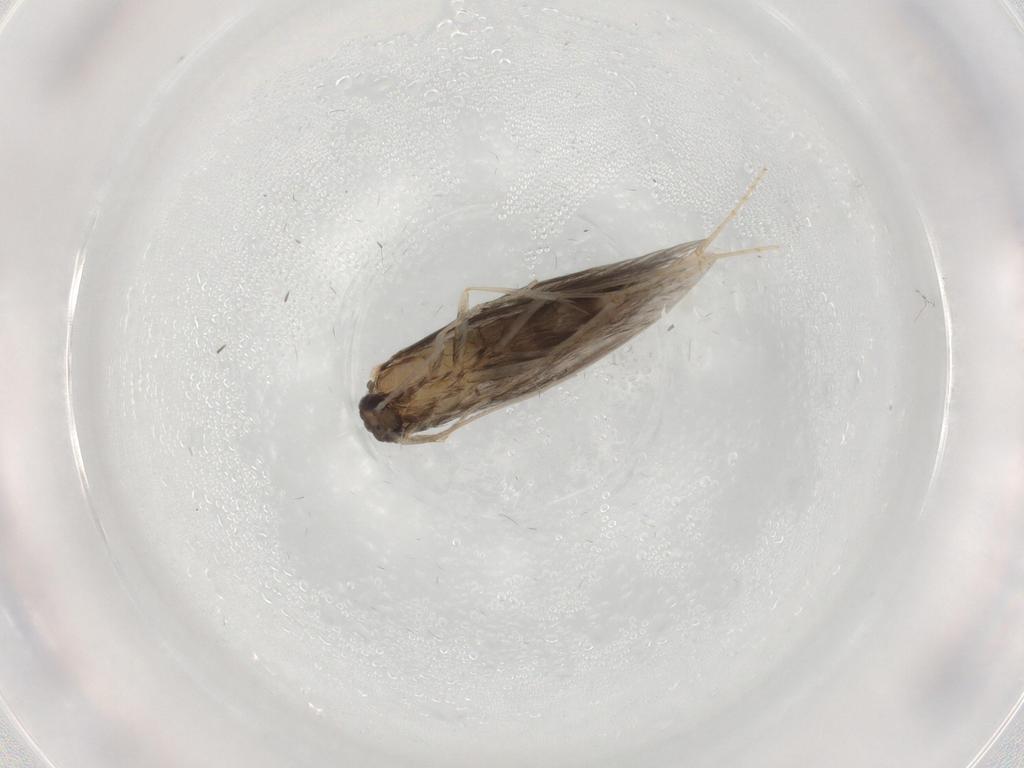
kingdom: Animalia
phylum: Arthropoda
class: Insecta
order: Trichoptera
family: Hydroptilidae
